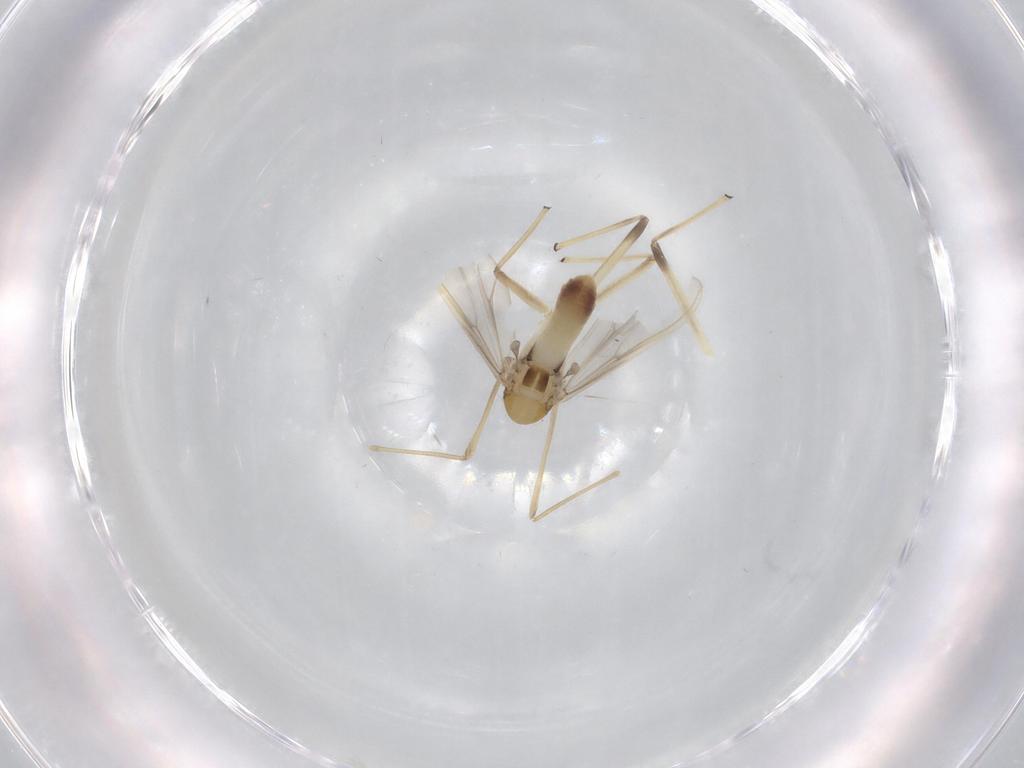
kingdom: Animalia
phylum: Arthropoda
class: Insecta
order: Diptera
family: Chironomidae
